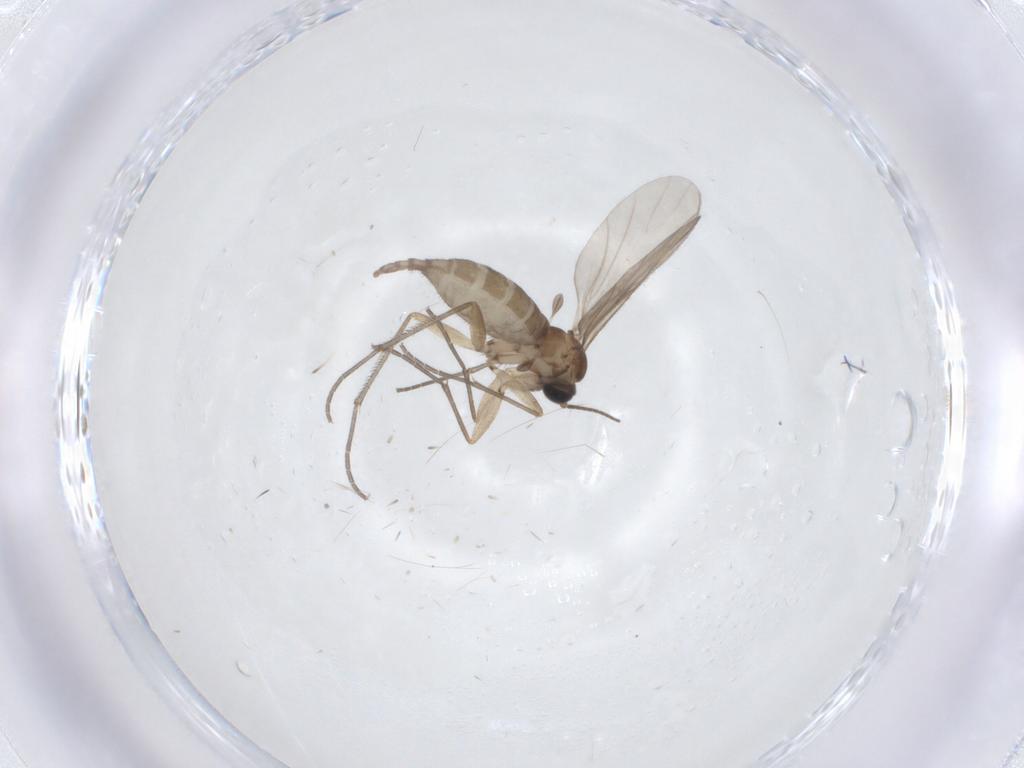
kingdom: Animalia
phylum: Arthropoda
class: Insecta
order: Diptera
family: Sciaridae
